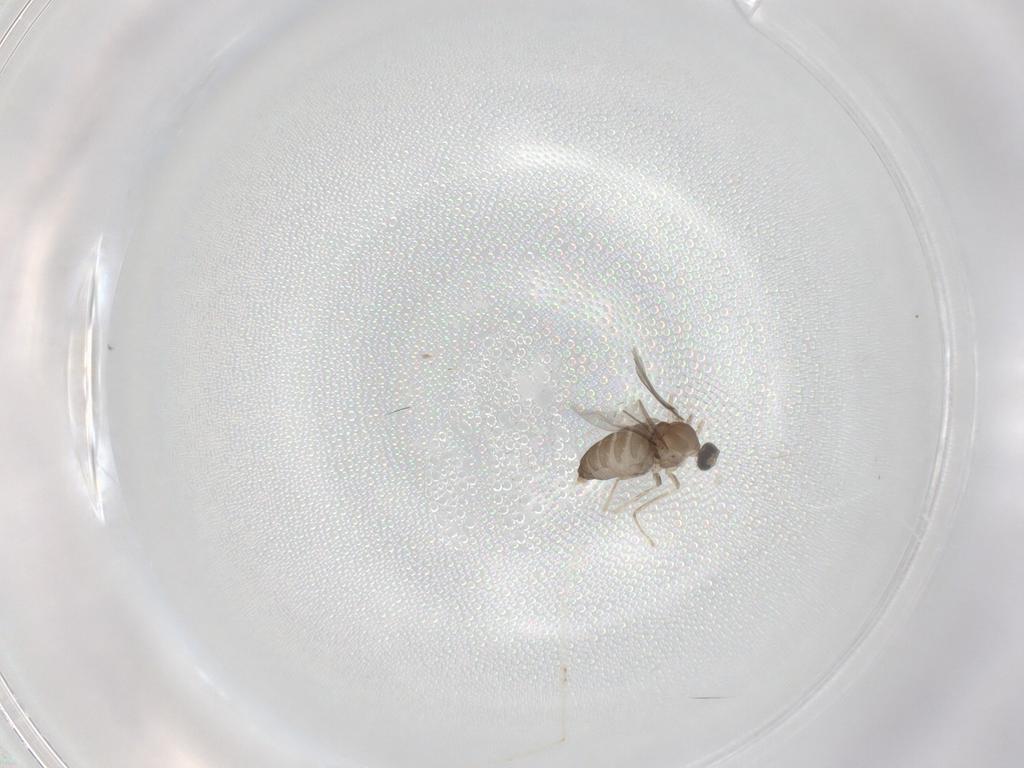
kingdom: Animalia
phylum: Arthropoda
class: Insecta
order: Diptera
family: Cecidomyiidae
